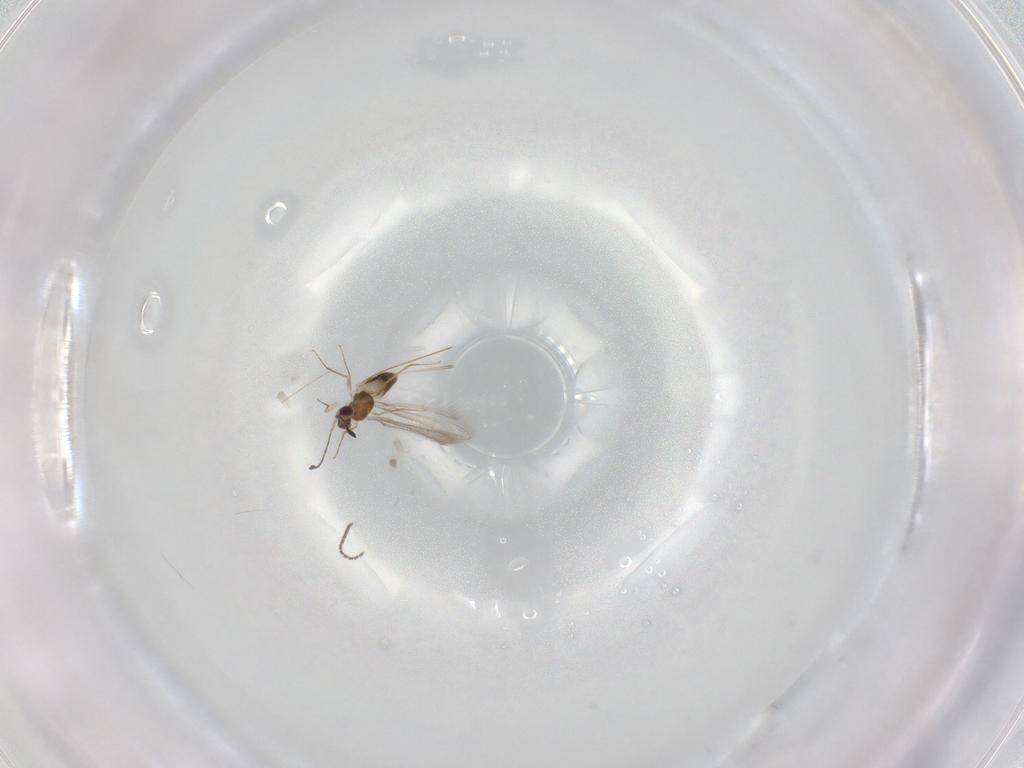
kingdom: Animalia
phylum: Arthropoda
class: Insecta
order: Hymenoptera
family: Mymaridae
